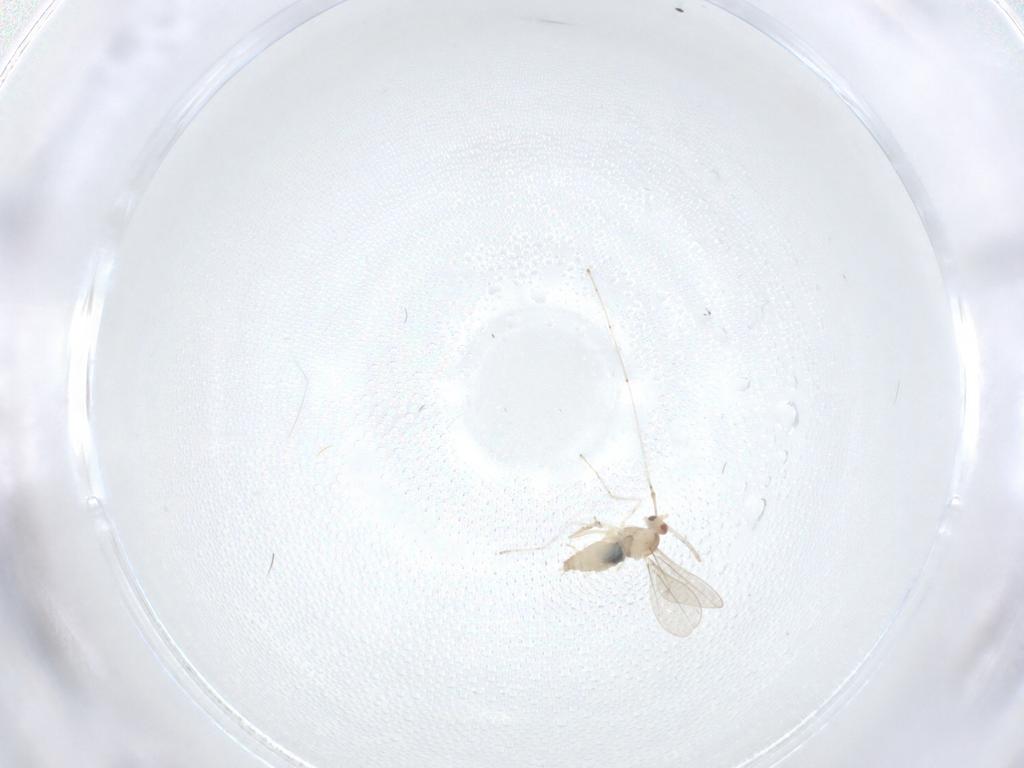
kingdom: Animalia
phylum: Arthropoda
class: Insecta
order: Diptera
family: Cecidomyiidae
